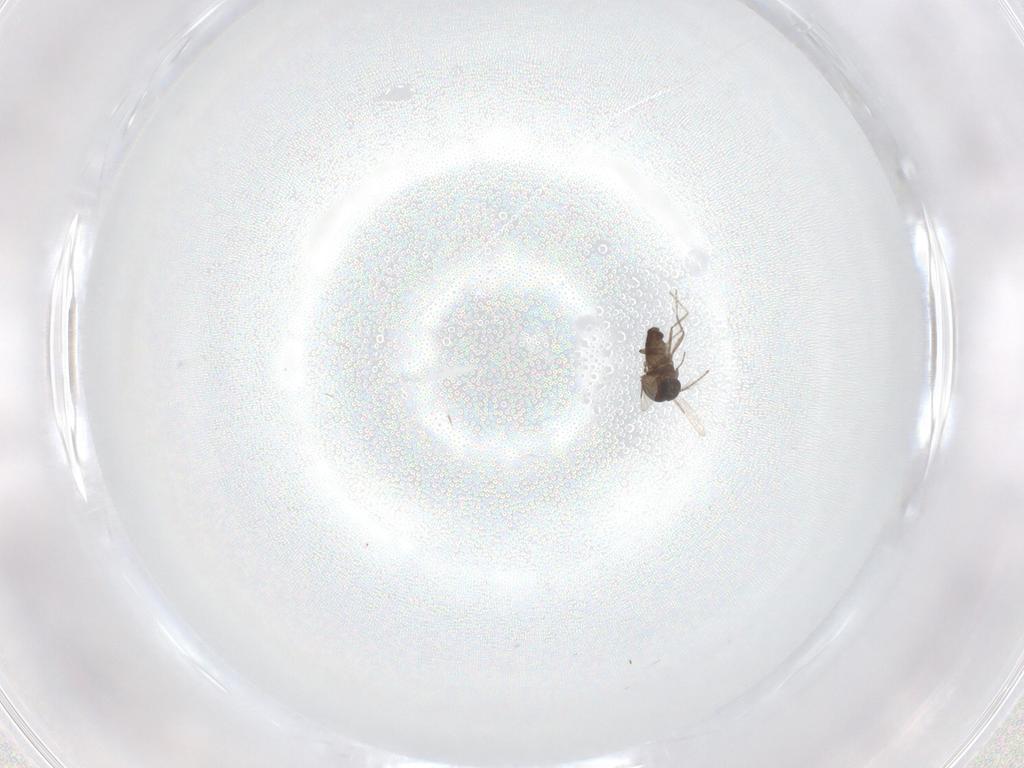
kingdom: Animalia
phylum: Arthropoda
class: Insecta
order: Diptera
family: Ceratopogonidae
